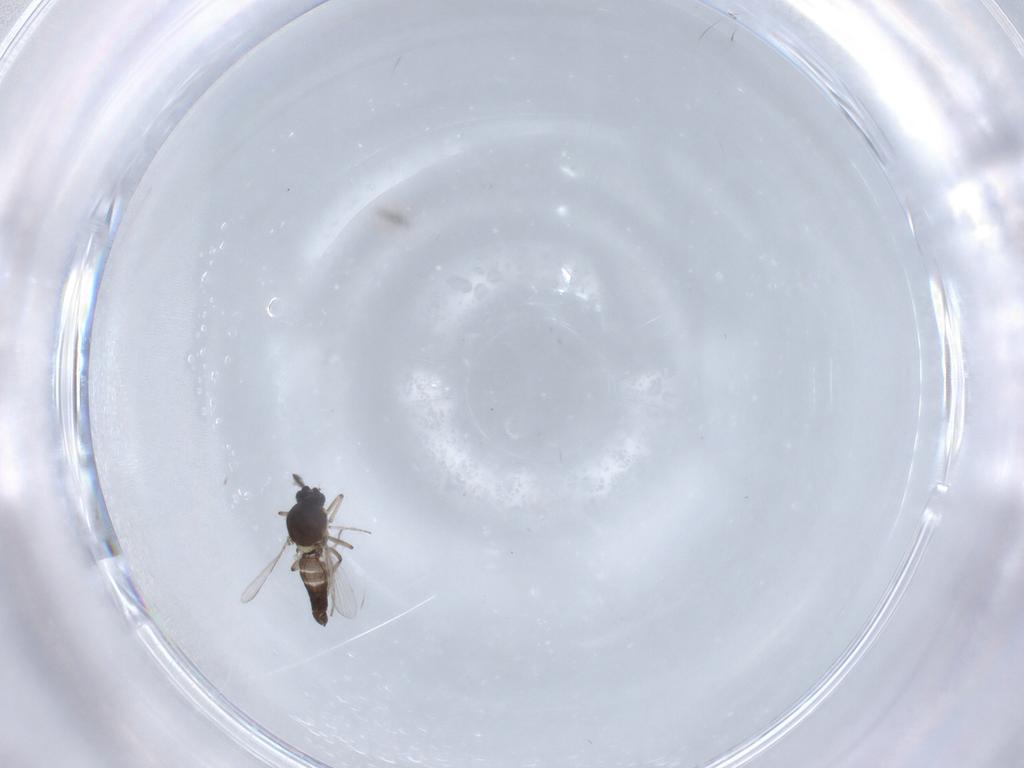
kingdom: Animalia
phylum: Arthropoda
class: Insecta
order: Diptera
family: Ceratopogonidae
